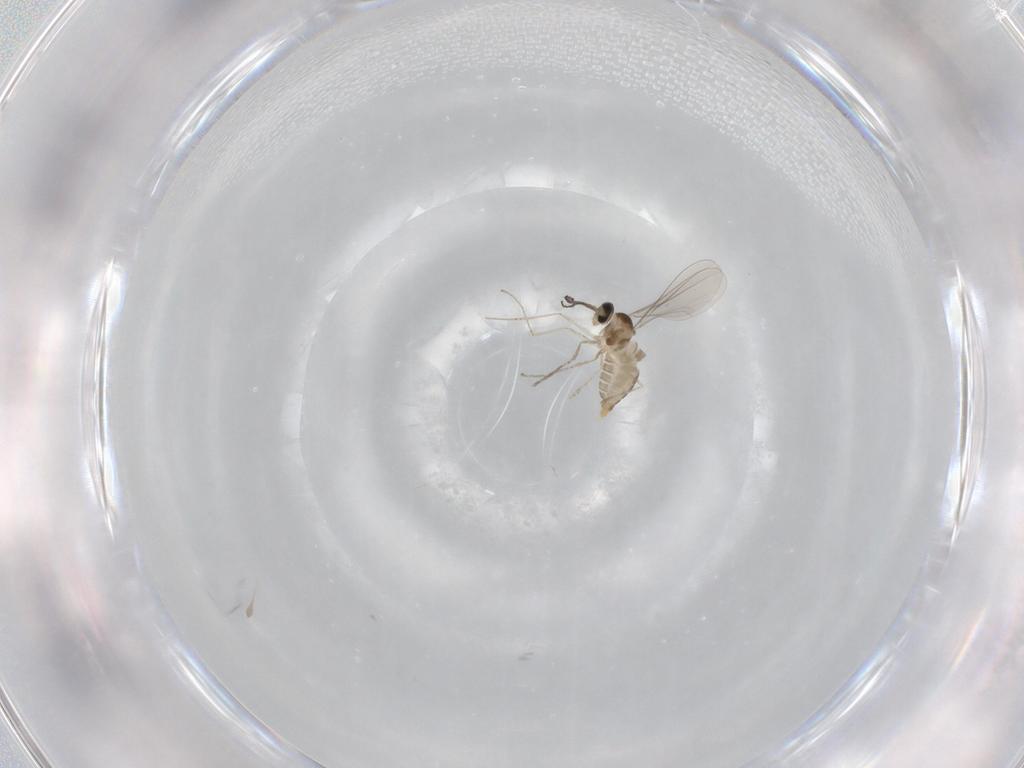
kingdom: Animalia
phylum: Arthropoda
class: Insecta
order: Diptera
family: Cecidomyiidae
